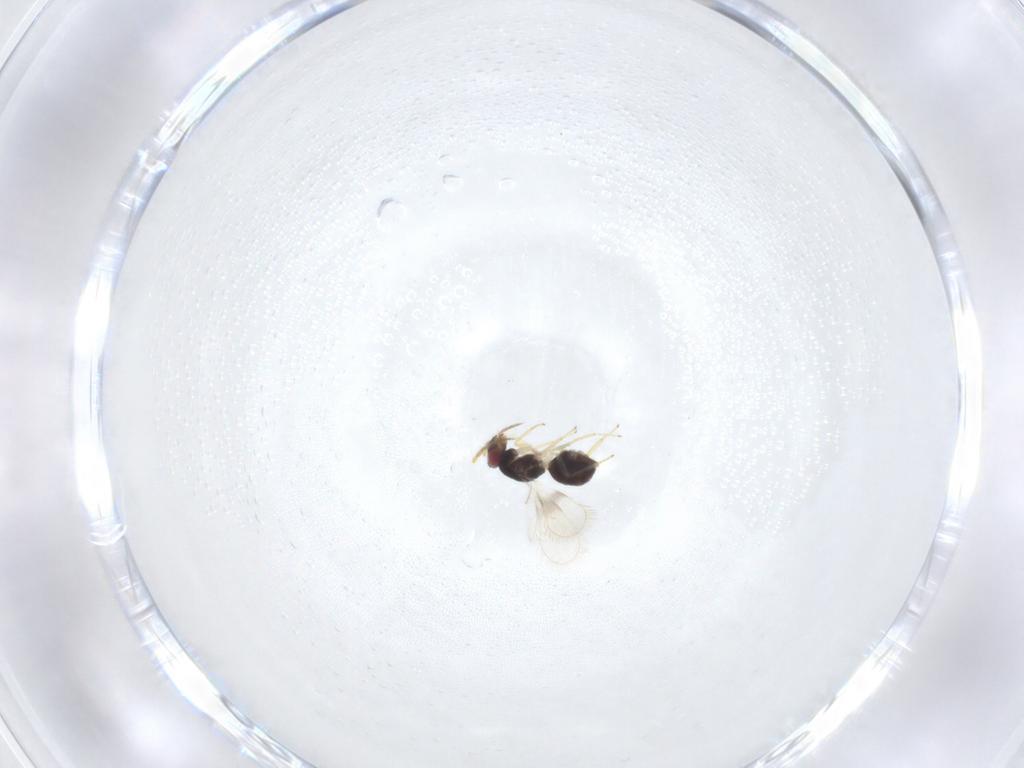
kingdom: Animalia
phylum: Arthropoda
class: Insecta
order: Hymenoptera
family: Eulophidae
